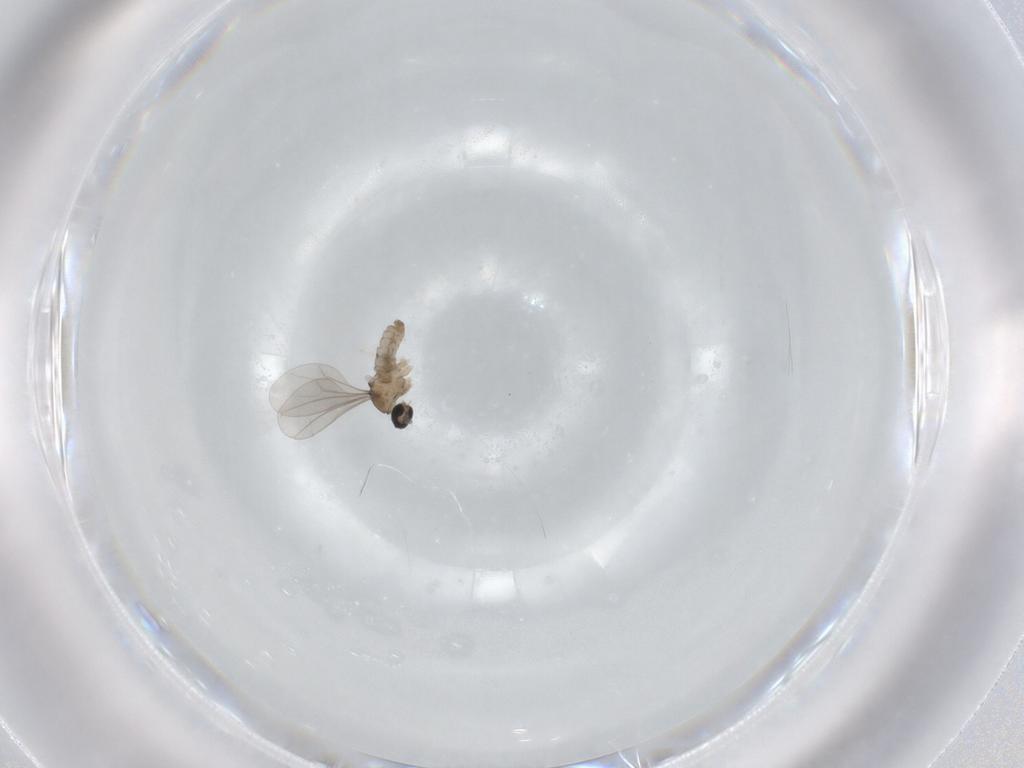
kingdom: Animalia
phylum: Arthropoda
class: Insecta
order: Diptera
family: Cecidomyiidae
